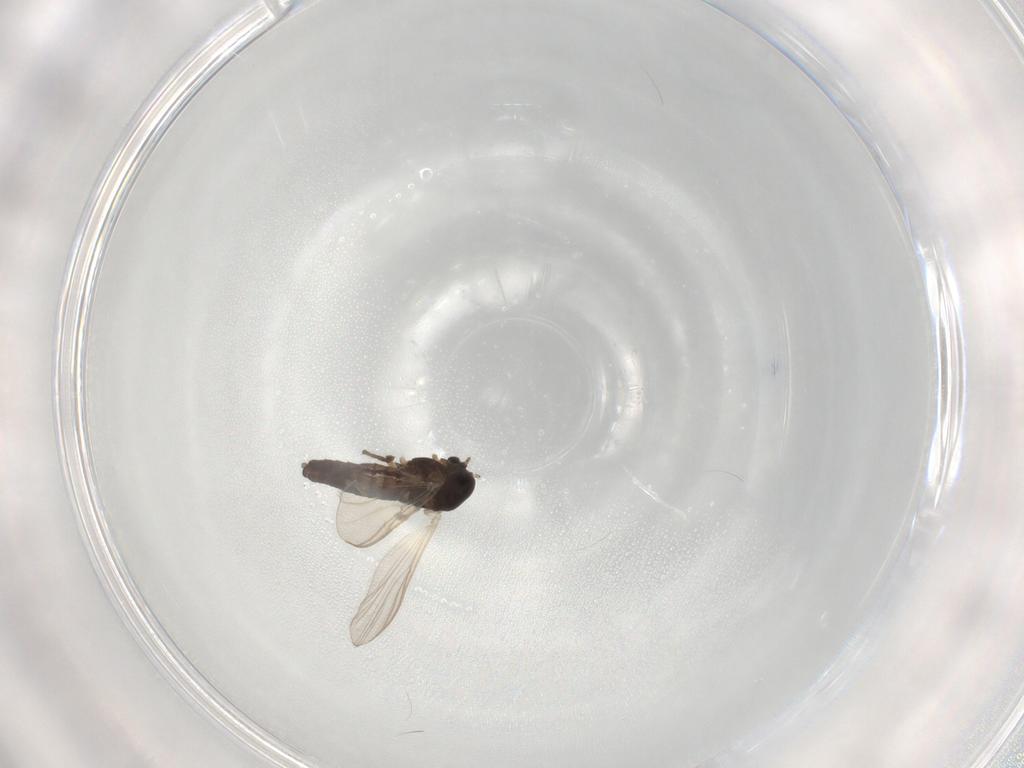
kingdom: Animalia
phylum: Arthropoda
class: Insecta
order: Diptera
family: Chironomidae
